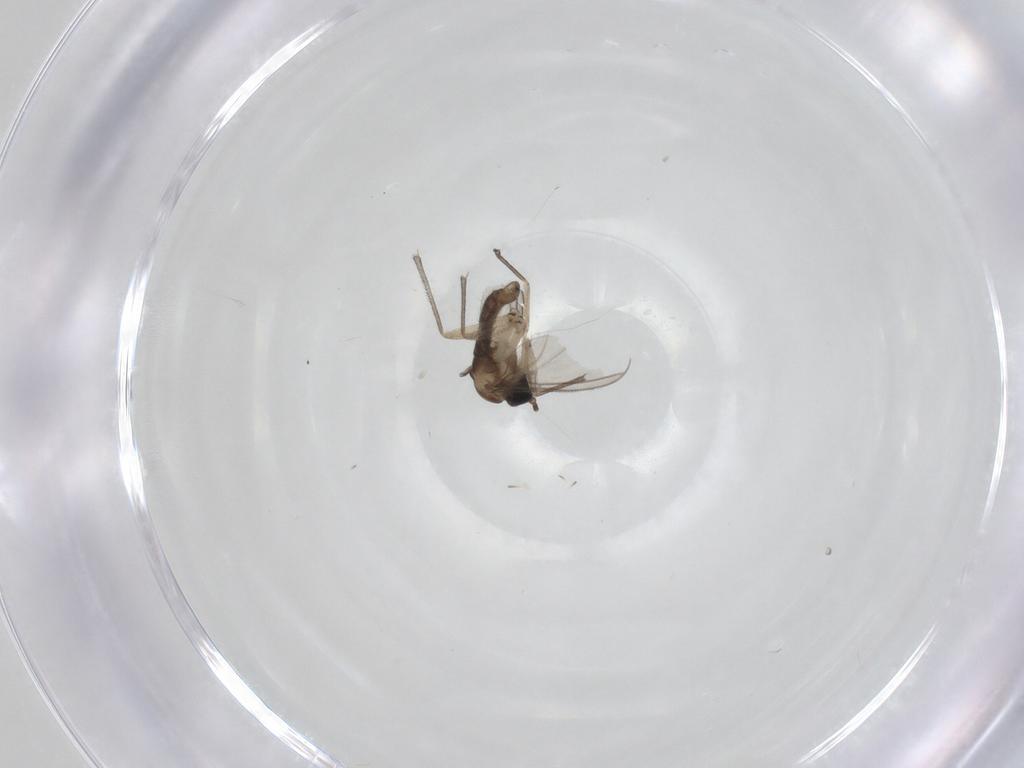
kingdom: Animalia
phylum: Arthropoda
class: Insecta
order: Diptera
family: Sciaridae
